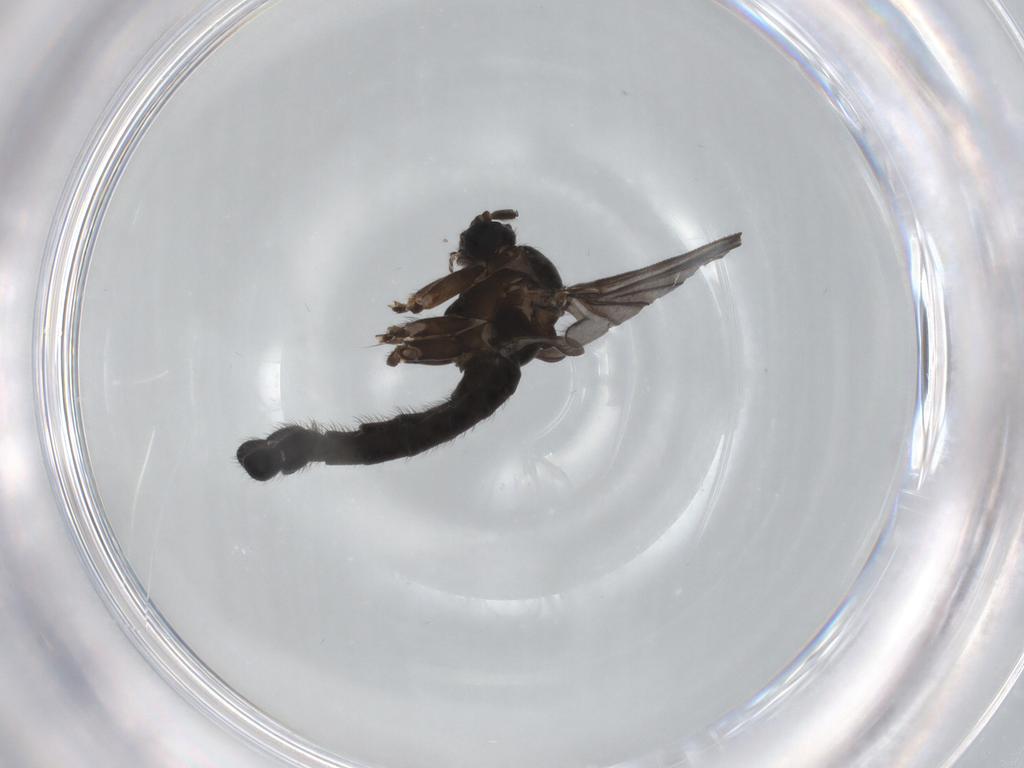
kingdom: Animalia
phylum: Arthropoda
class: Insecta
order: Diptera
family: Sciaridae
